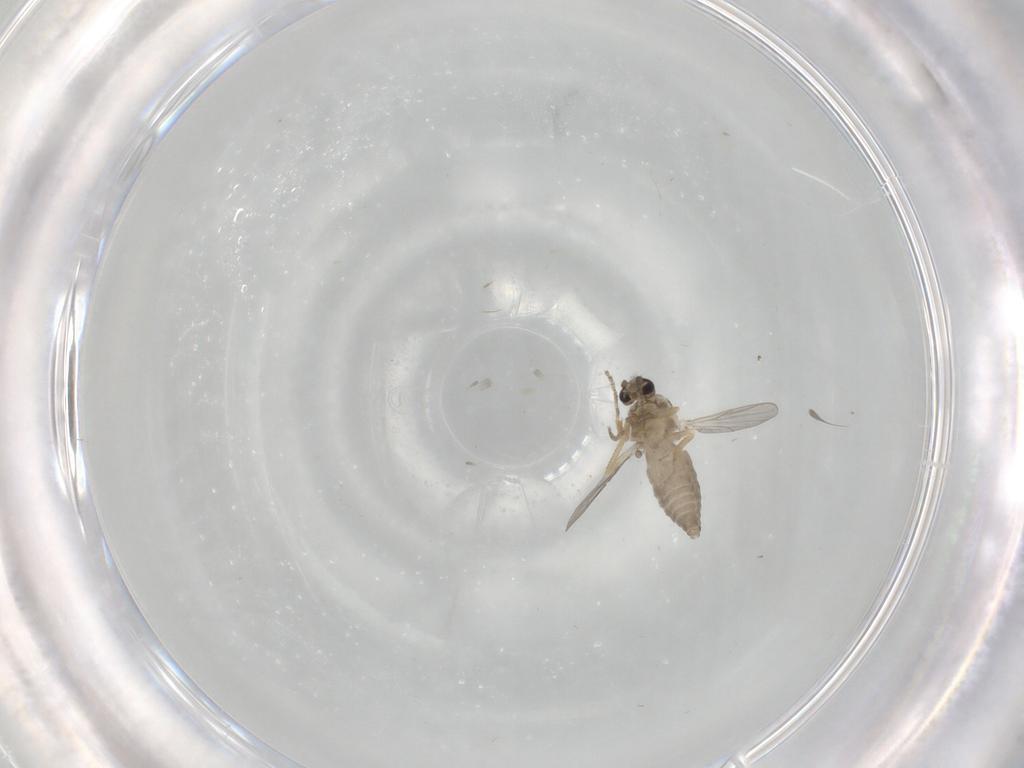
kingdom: Animalia
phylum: Arthropoda
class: Insecta
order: Diptera
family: Ceratopogonidae
